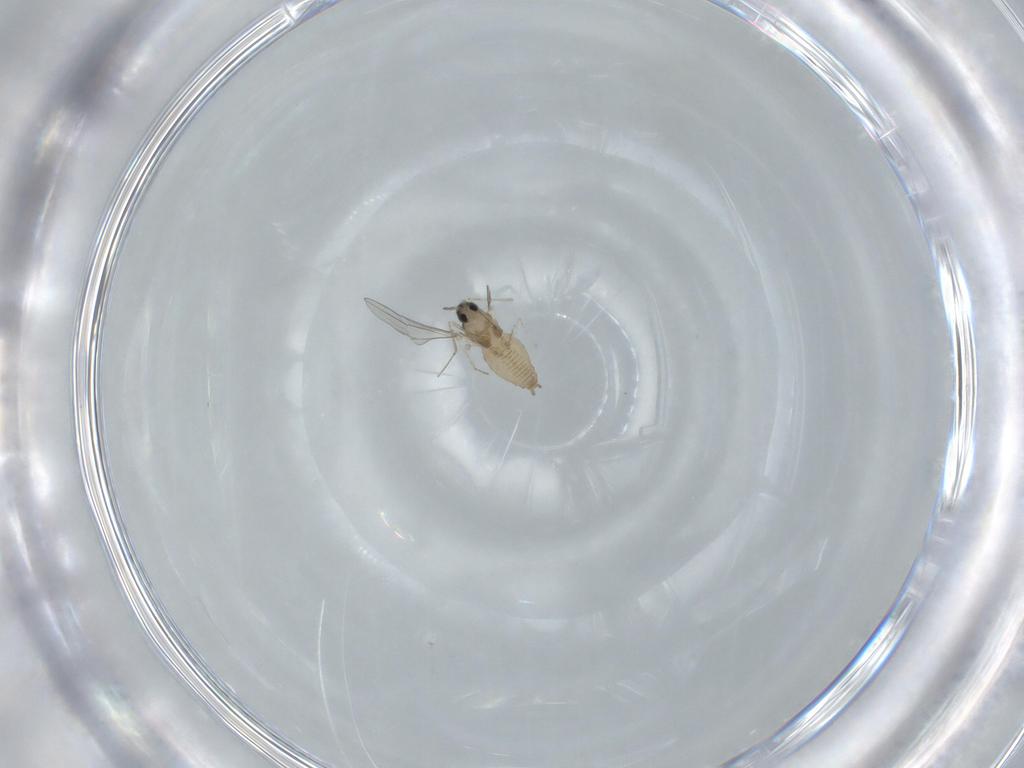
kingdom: Animalia
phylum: Arthropoda
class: Insecta
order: Diptera
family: Cecidomyiidae
